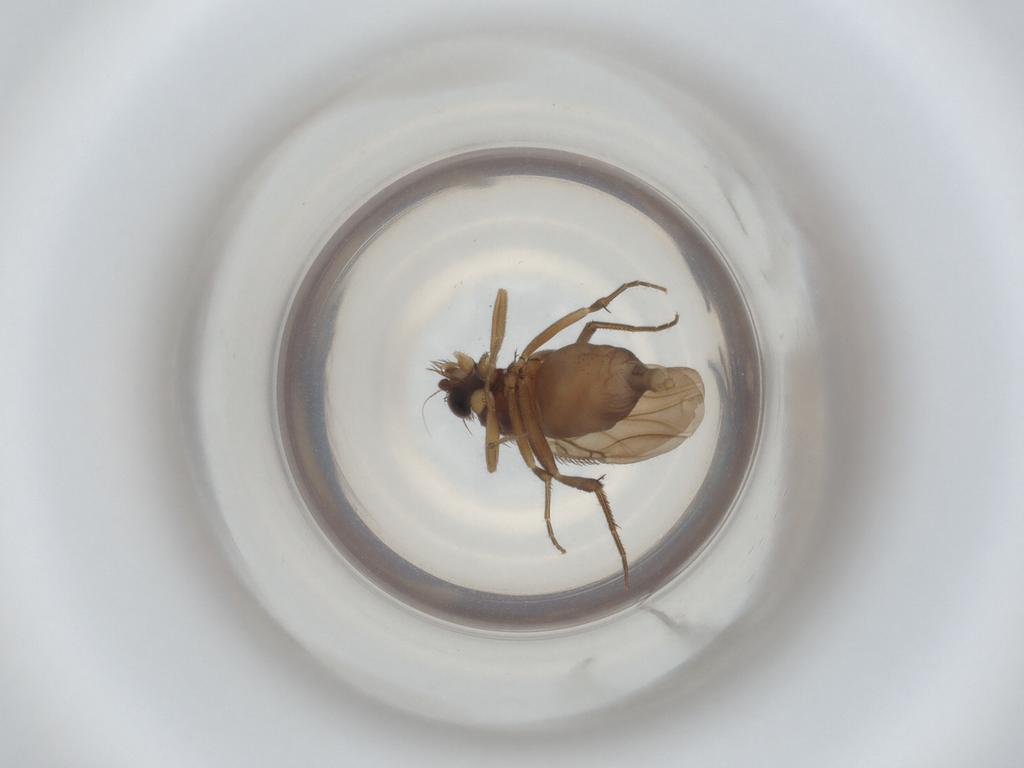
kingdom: Animalia
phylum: Arthropoda
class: Insecta
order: Diptera
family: Phoridae
